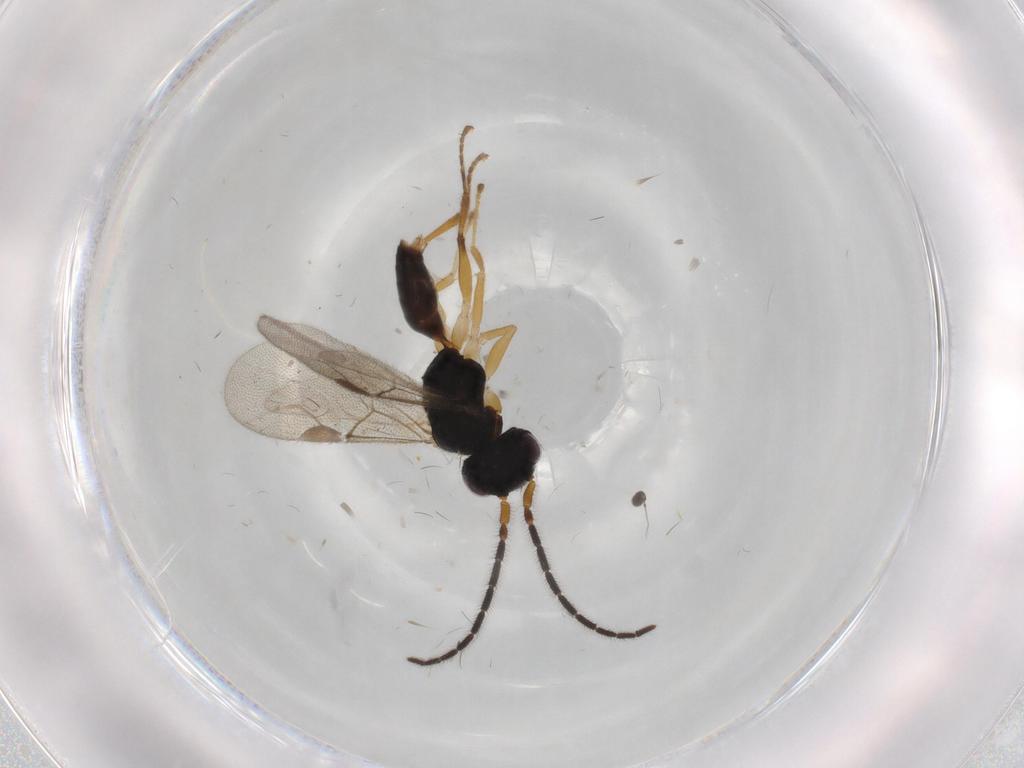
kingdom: Animalia
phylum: Arthropoda
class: Insecta
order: Hymenoptera
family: Dryinidae
